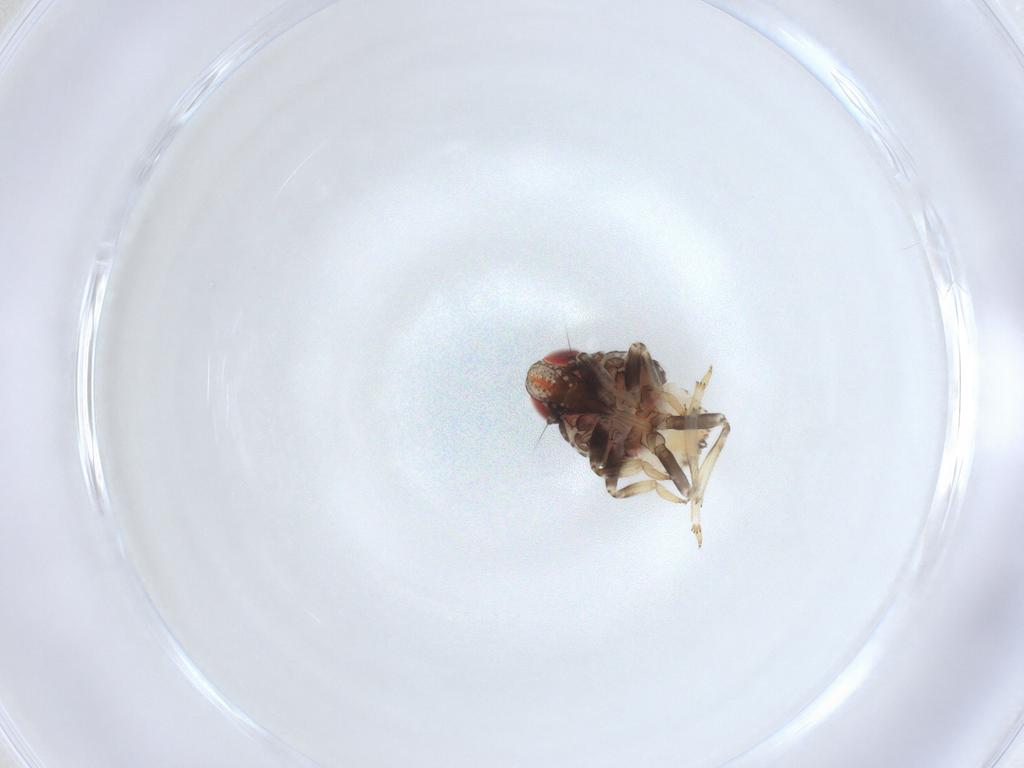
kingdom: Animalia
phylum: Arthropoda
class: Insecta
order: Hemiptera
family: Issidae
